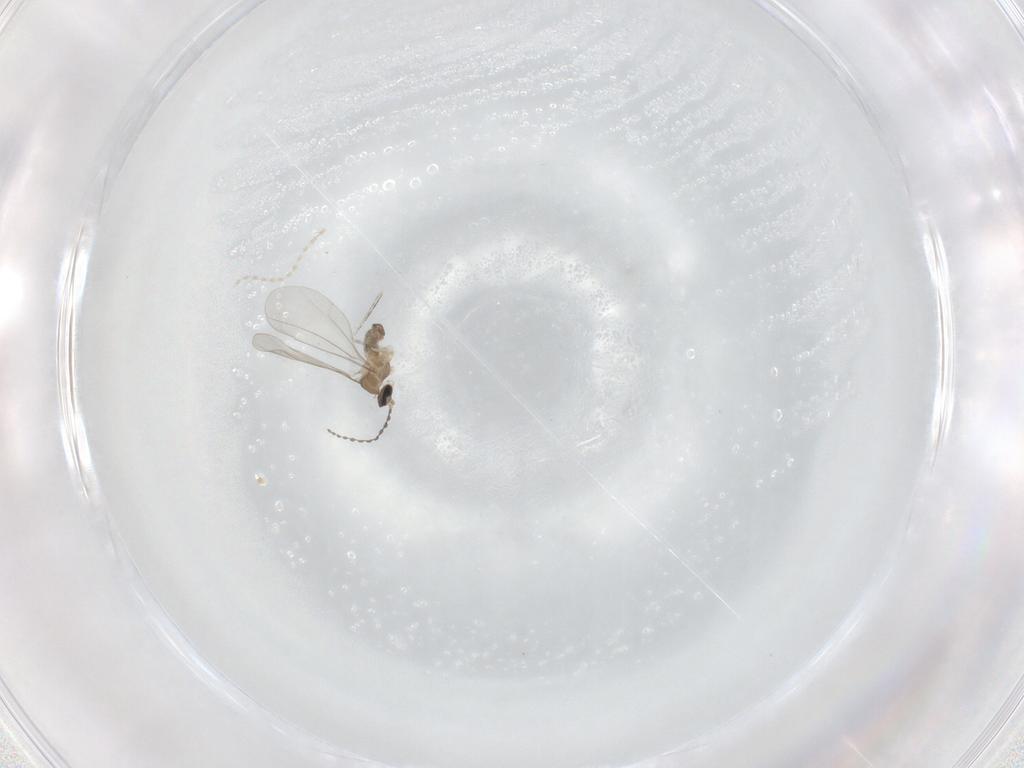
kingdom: Animalia
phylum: Arthropoda
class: Insecta
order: Diptera
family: Cecidomyiidae
